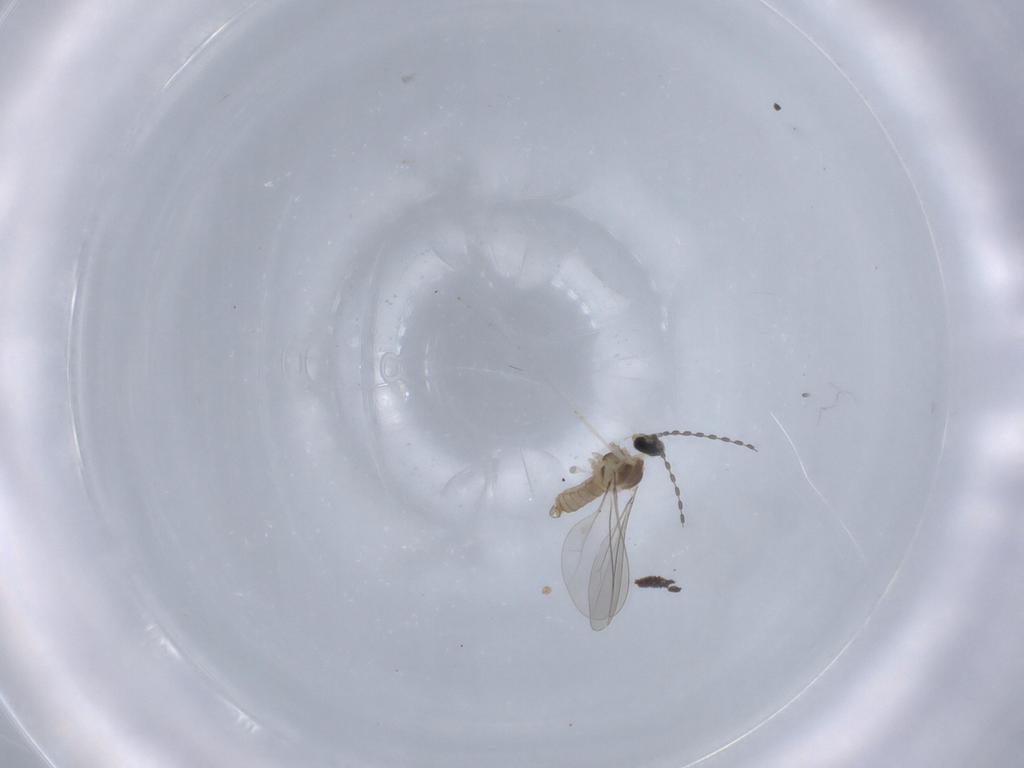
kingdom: Animalia
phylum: Arthropoda
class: Insecta
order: Diptera
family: Cecidomyiidae
